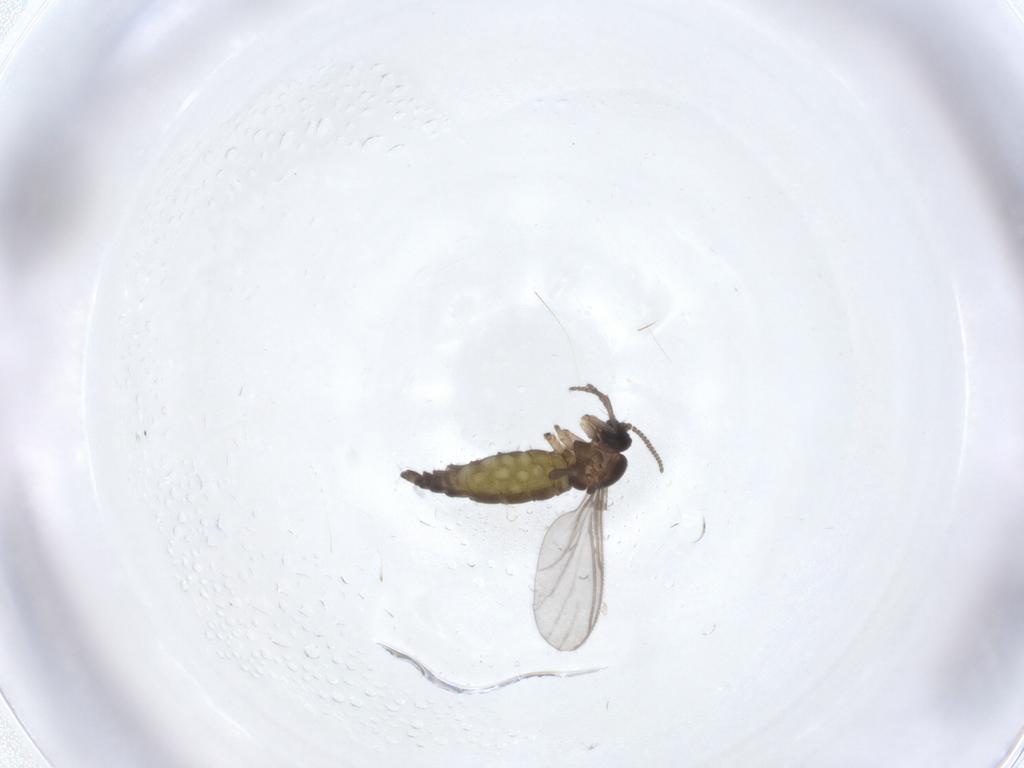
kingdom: Animalia
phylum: Arthropoda
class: Insecta
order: Diptera
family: Sciaridae
